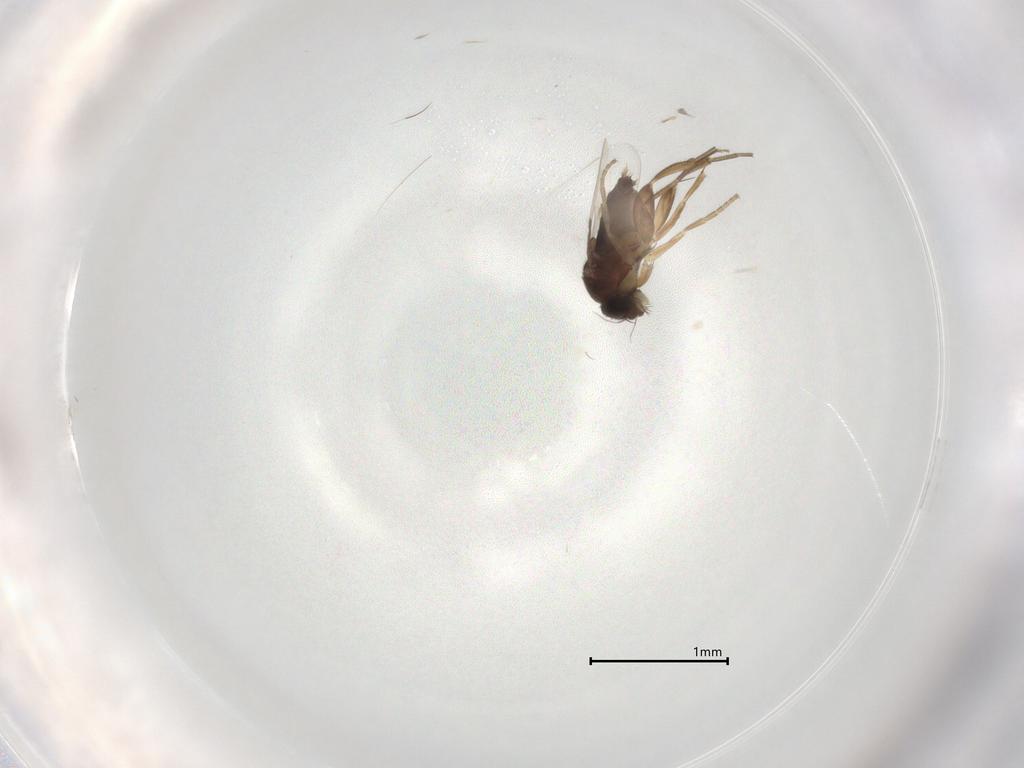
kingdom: Animalia
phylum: Arthropoda
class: Insecta
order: Diptera
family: Phoridae
